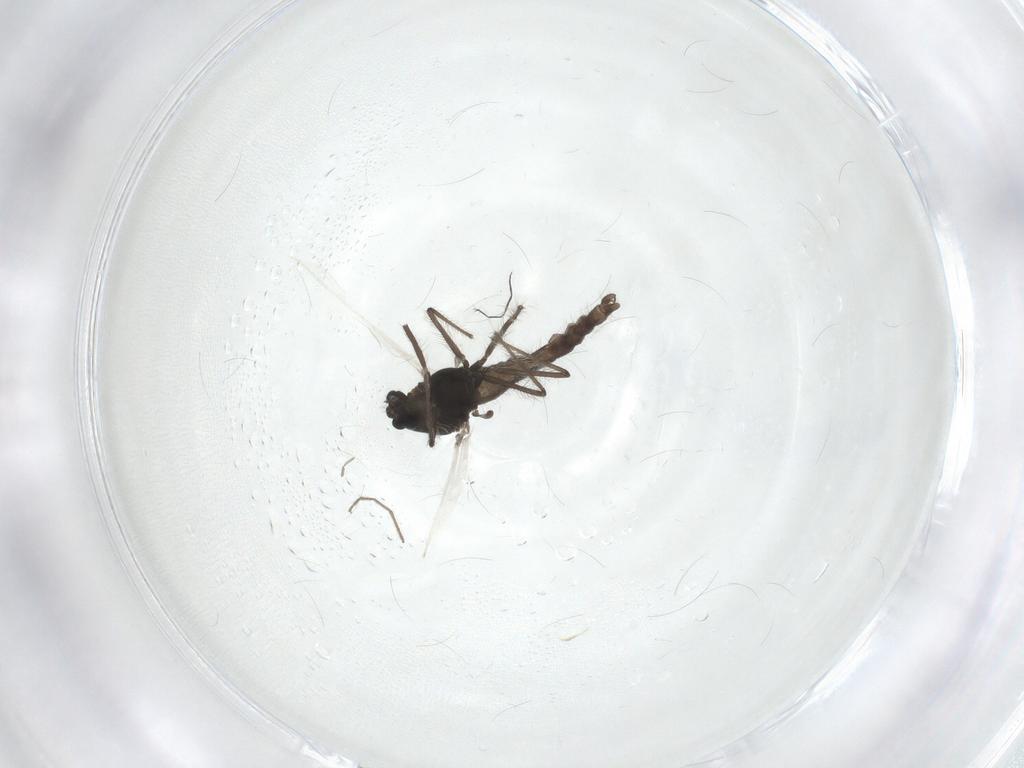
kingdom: Animalia
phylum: Arthropoda
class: Insecta
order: Diptera
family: Chironomidae
